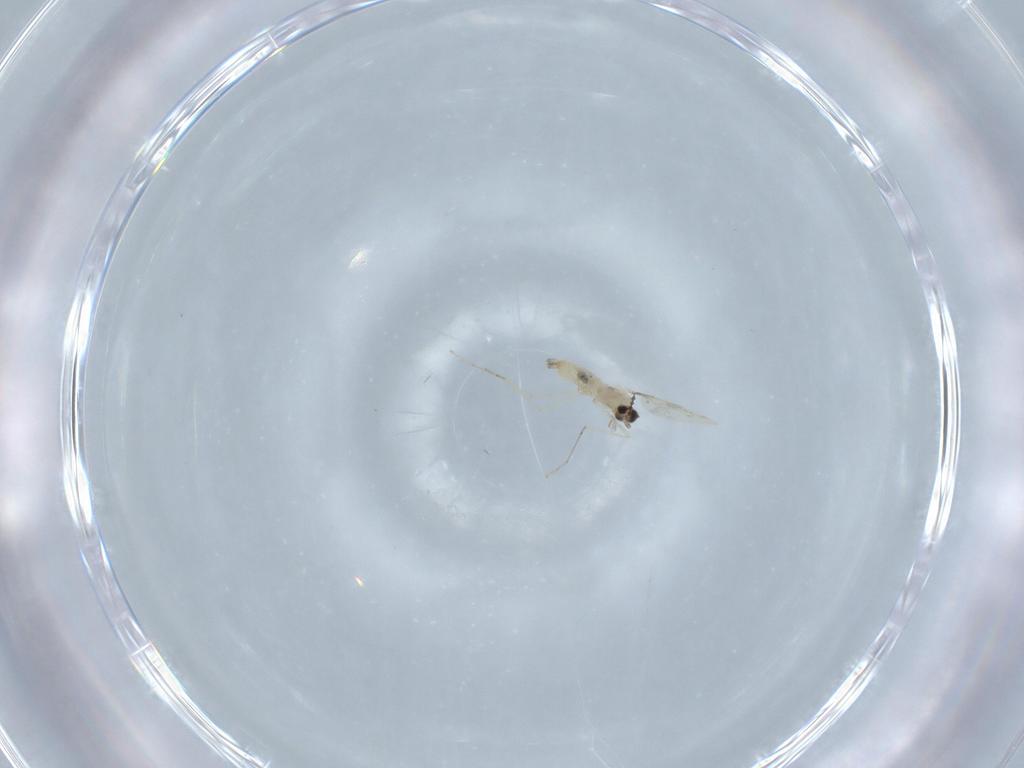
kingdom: Animalia
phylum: Arthropoda
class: Insecta
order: Diptera
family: Cecidomyiidae
